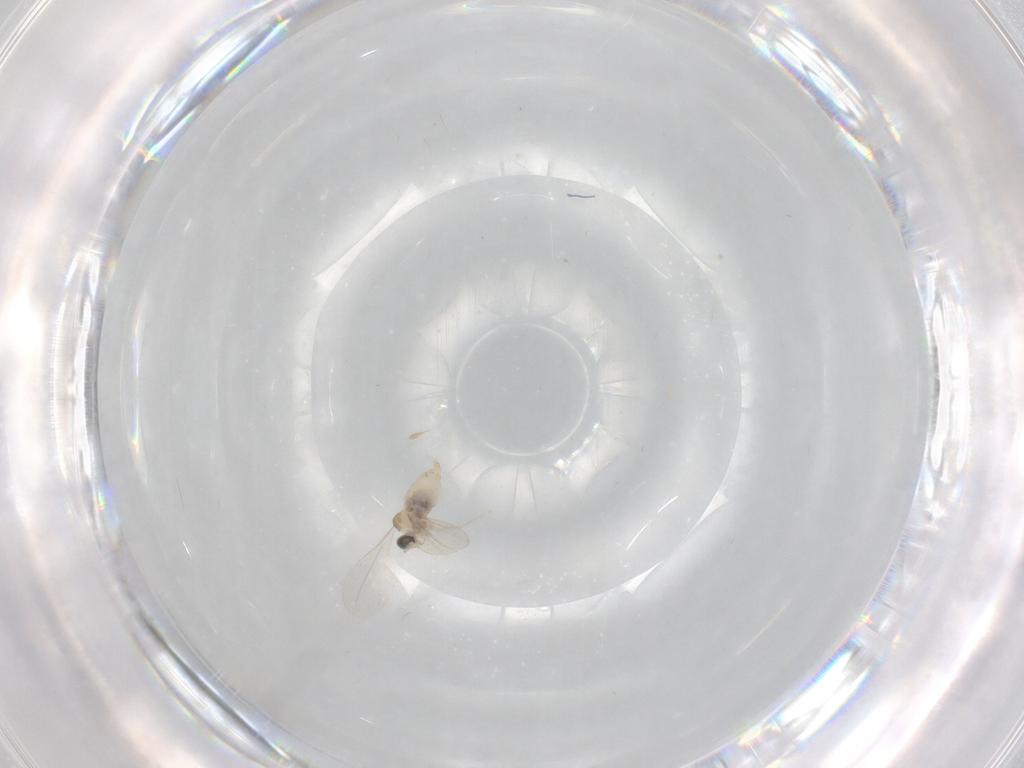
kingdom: Animalia
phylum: Arthropoda
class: Insecta
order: Diptera
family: Ceratopogonidae
